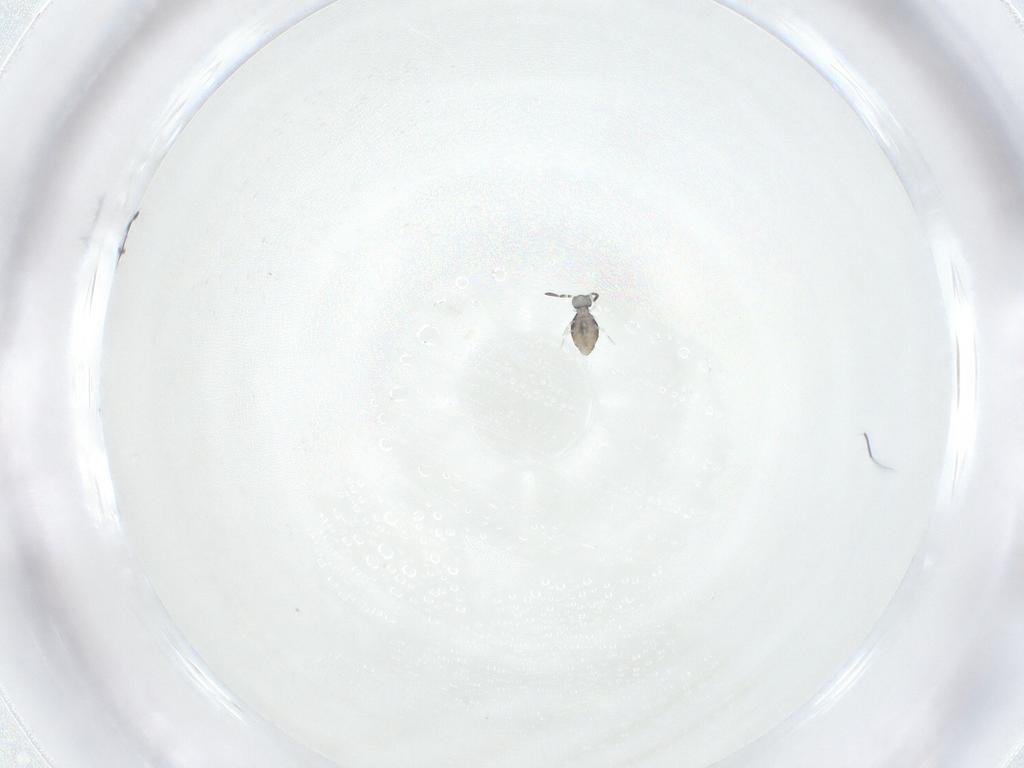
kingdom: Animalia
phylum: Arthropoda
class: Collembola
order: Symphypleona
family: Katiannidae
